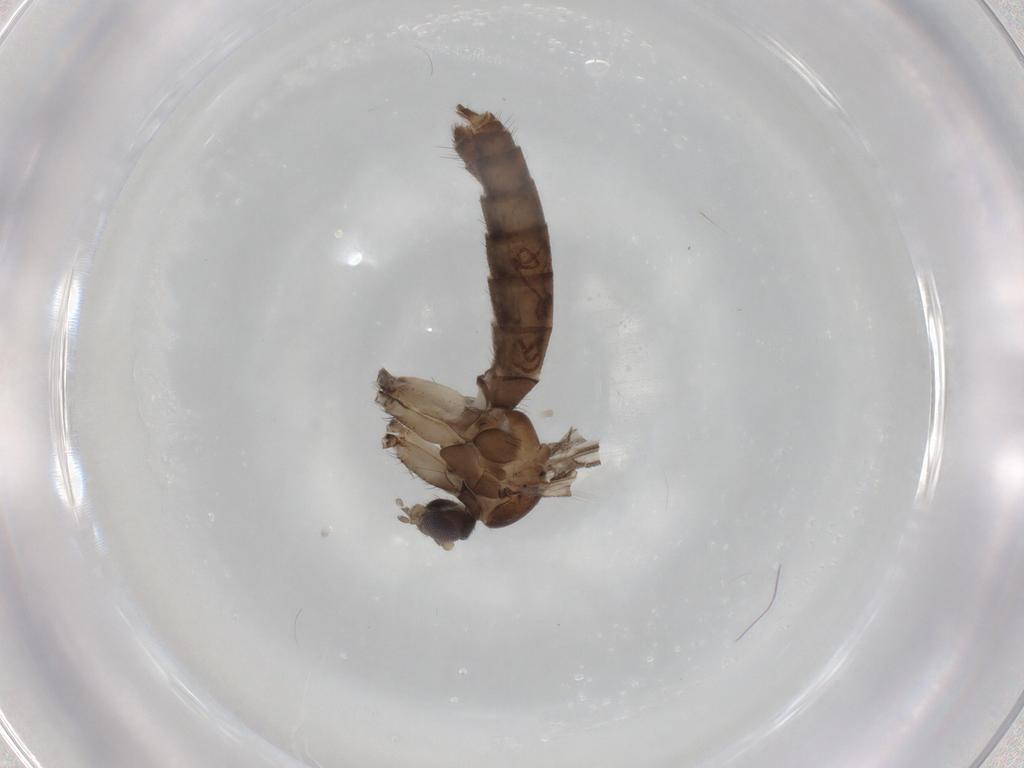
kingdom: Animalia
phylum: Arthropoda
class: Insecta
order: Diptera
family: Mycetophilidae
